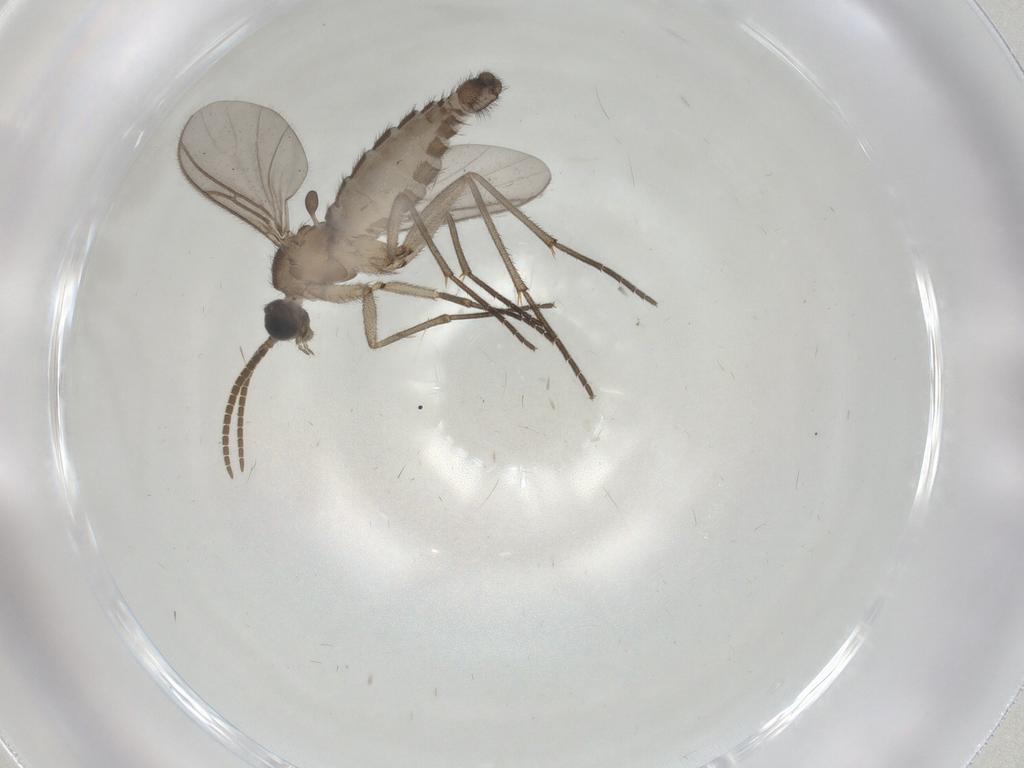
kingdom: Animalia
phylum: Arthropoda
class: Insecta
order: Diptera
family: Chironomidae
